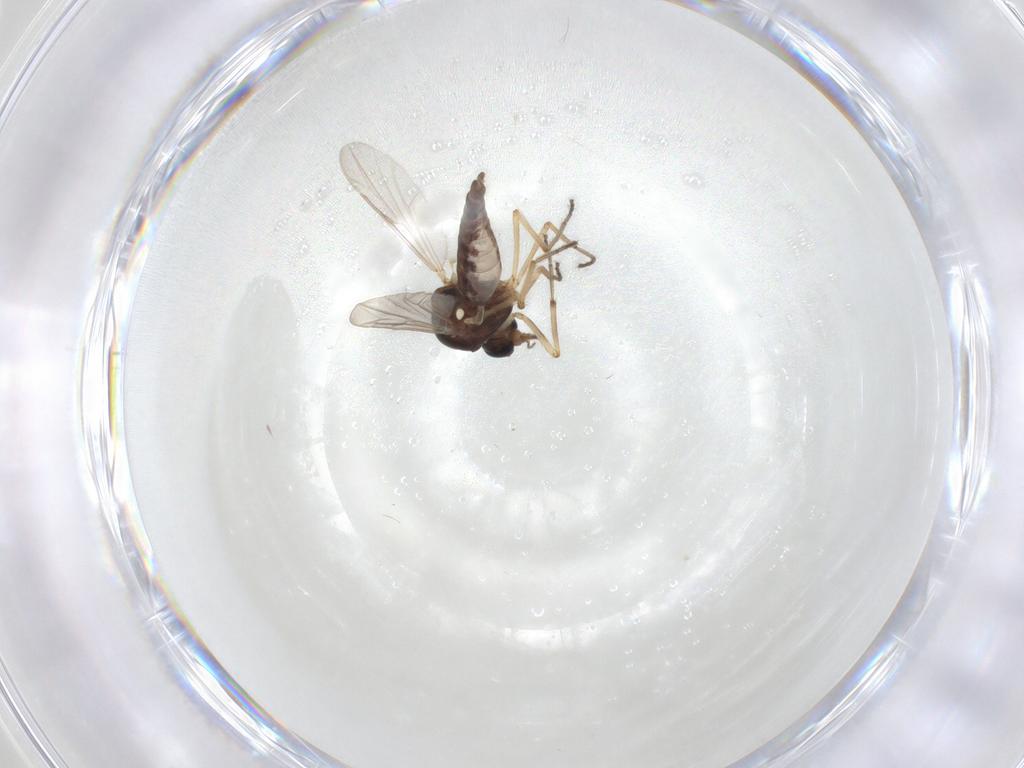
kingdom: Animalia
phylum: Arthropoda
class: Insecta
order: Diptera
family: Ceratopogonidae
